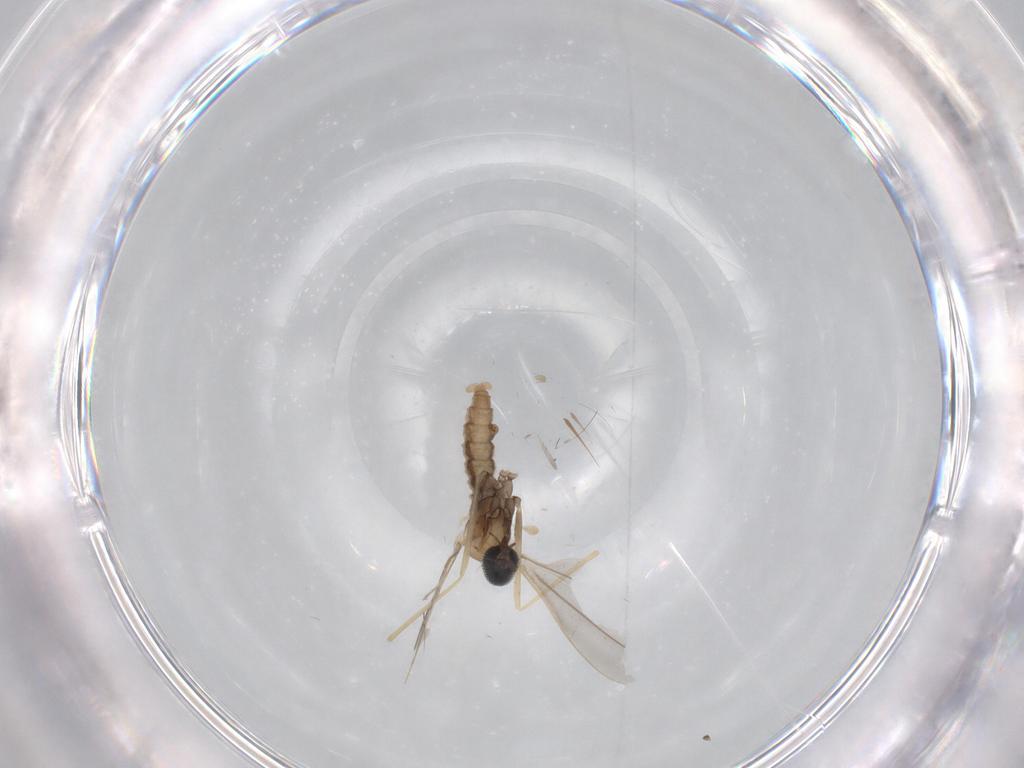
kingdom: Animalia
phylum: Arthropoda
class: Insecta
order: Diptera
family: Cecidomyiidae
